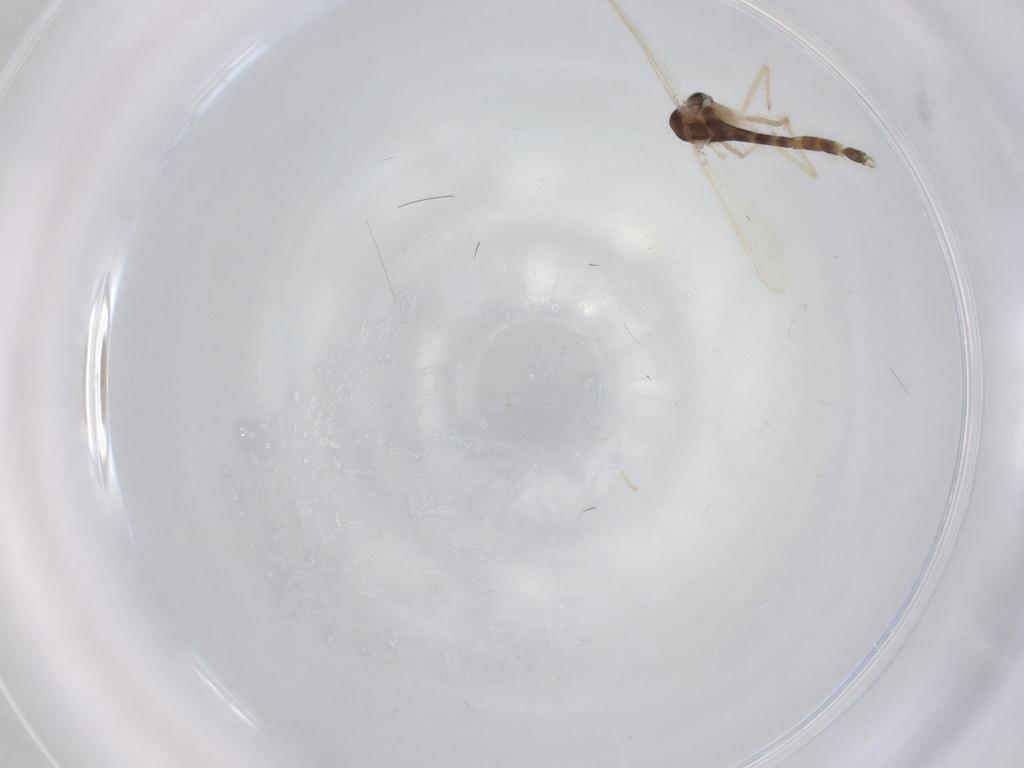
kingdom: Animalia
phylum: Arthropoda
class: Insecta
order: Diptera
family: Chironomidae
